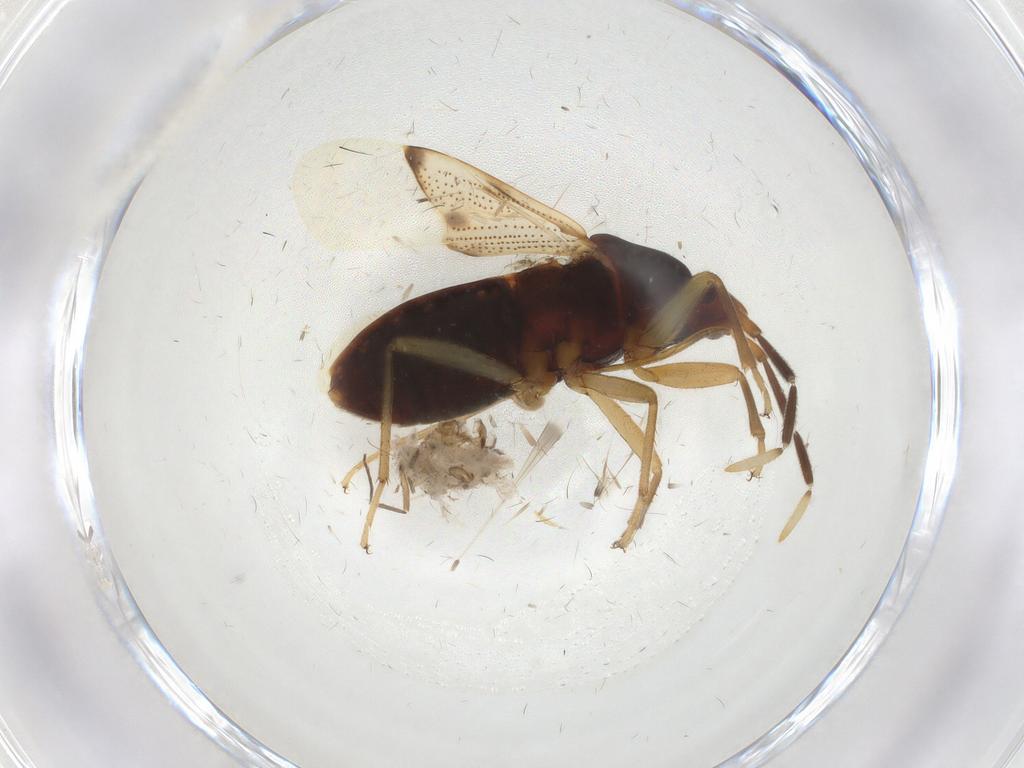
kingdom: Animalia
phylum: Arthropoda
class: Insecta
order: Hemiptera
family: Rhyparochromidae
